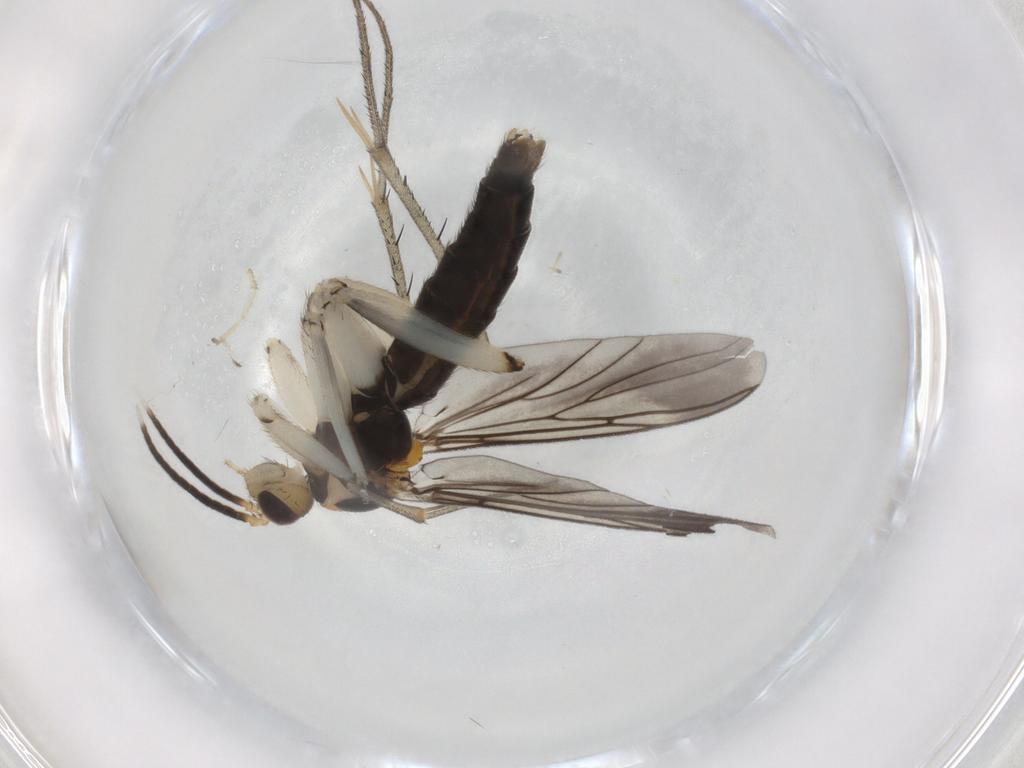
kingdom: Animalia
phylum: Arthropoda
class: Insecta
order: Diptera
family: Mycetophilidae
